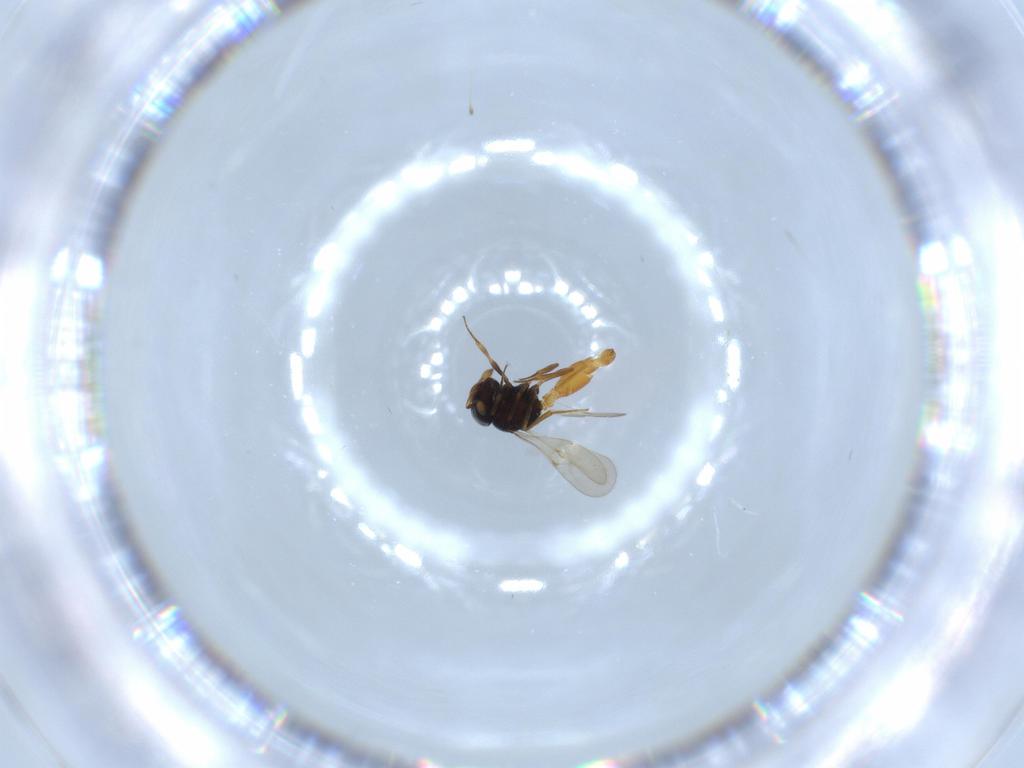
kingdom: Animalia
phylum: Arthropoda
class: Insecta
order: Hymenoptera
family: Scelionidae
